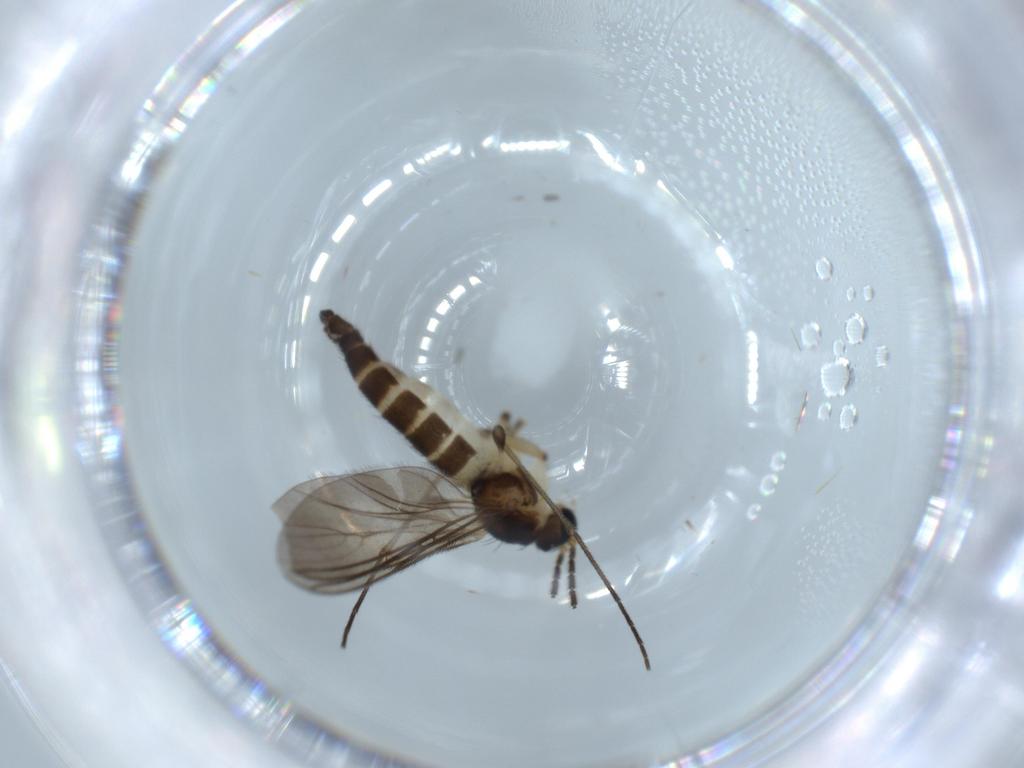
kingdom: Animalia
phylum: Arthropoda
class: Insecta
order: Diptera
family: Sciaridae
